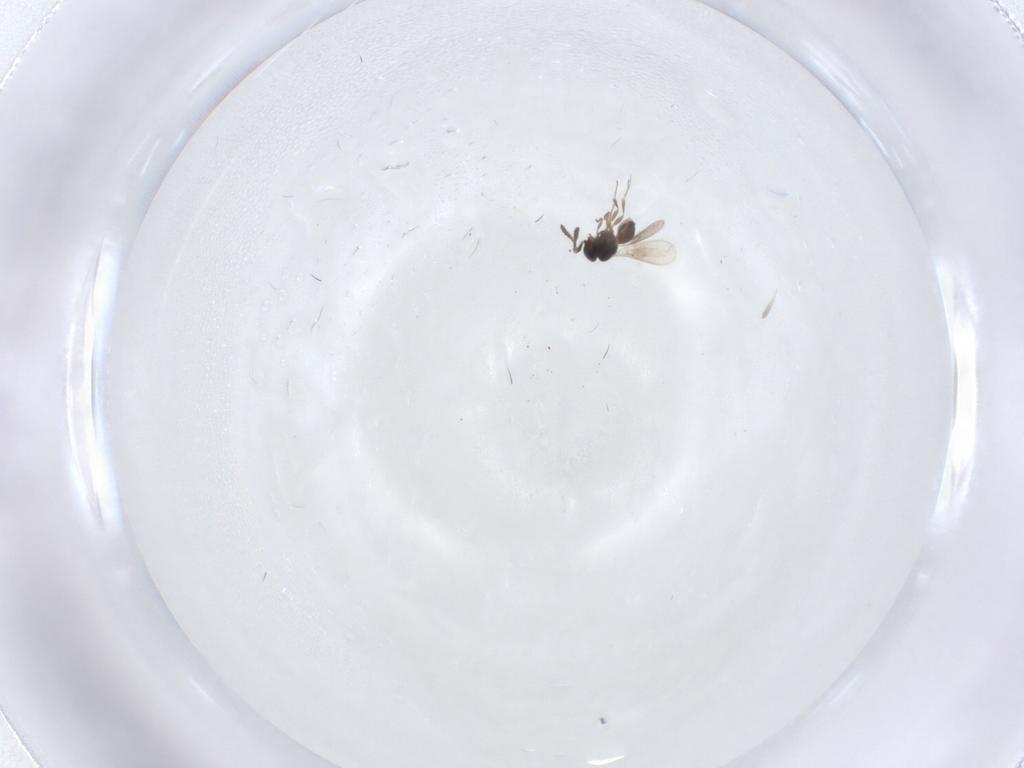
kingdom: Animalia
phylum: Arthropoda
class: Insecta
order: Hymenoptera
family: Scelionidae
